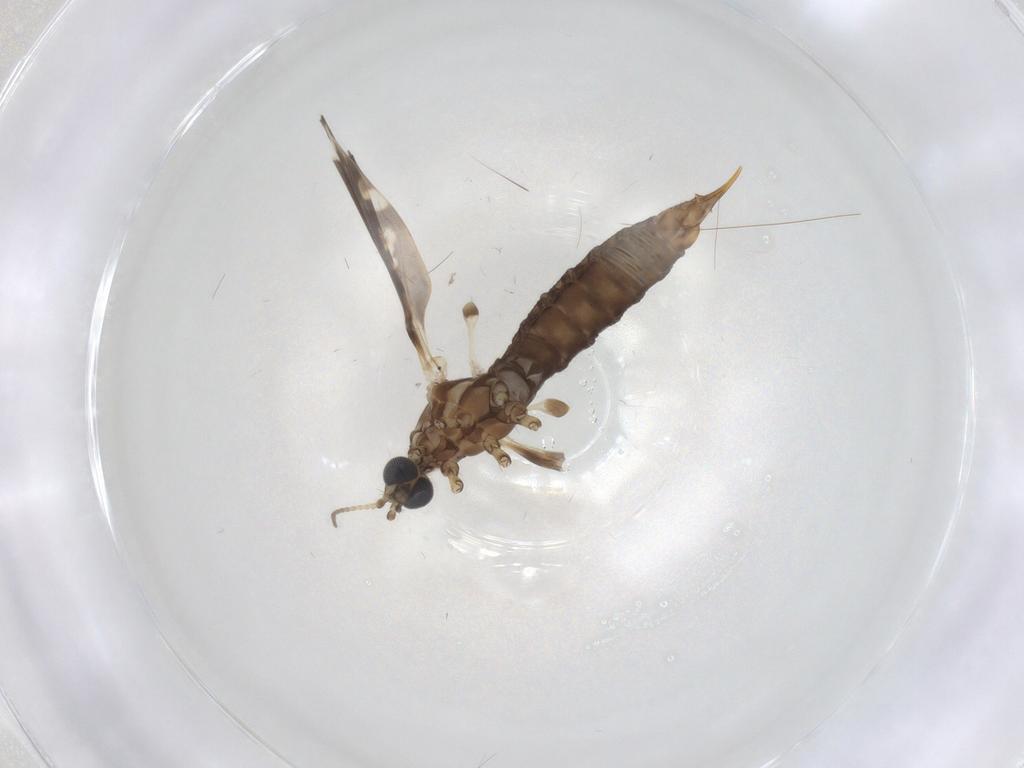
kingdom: Animalia
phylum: Arthropoda
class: Insecta
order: Diptera
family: Limoniidae
